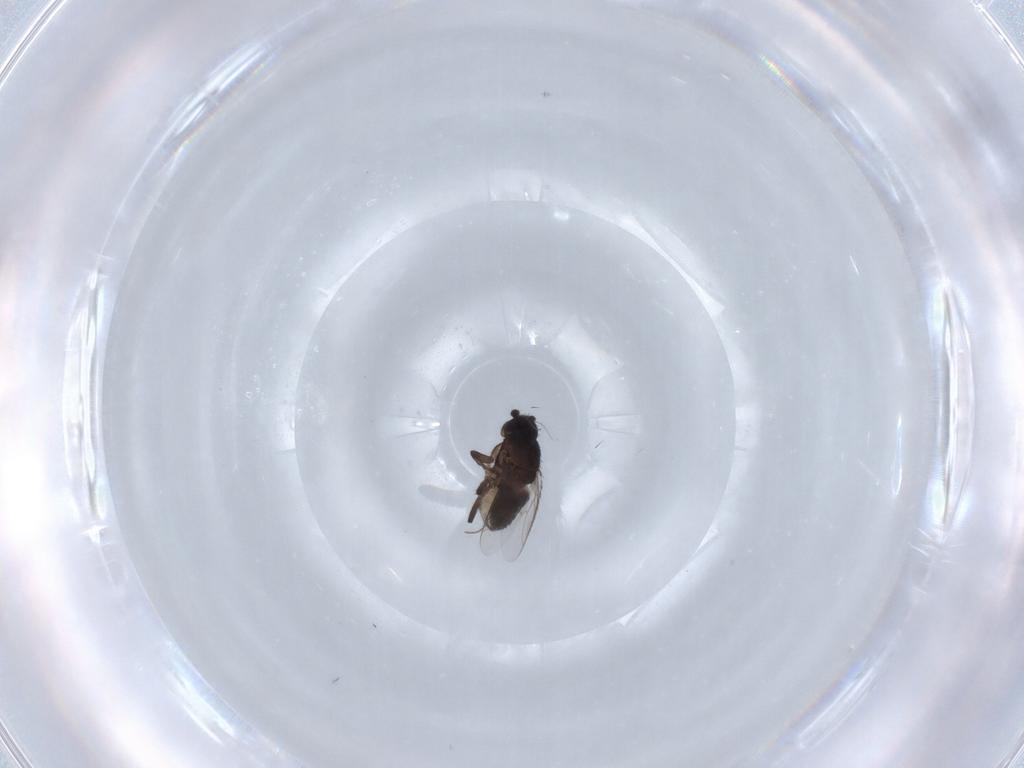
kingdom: Animalia
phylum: Arthropoda
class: Insecta
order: Diptera
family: Sphaeroceridae
